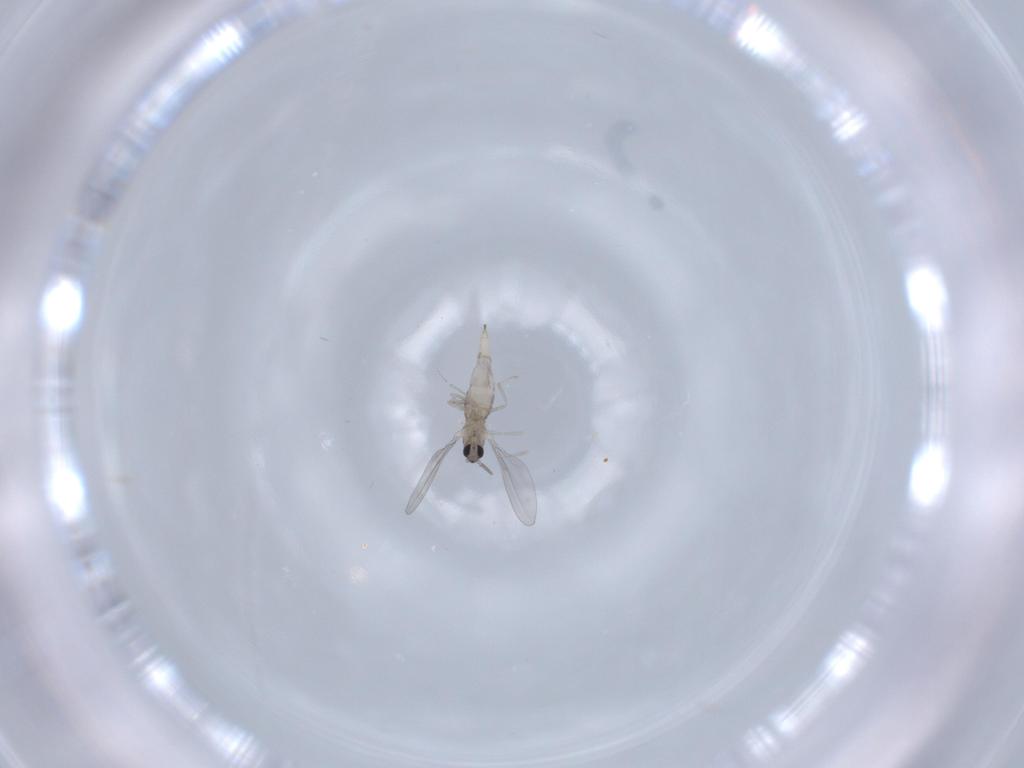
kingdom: Animalia
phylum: Arthropoda
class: Insecta
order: Diptera
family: Cecidomyiidae
